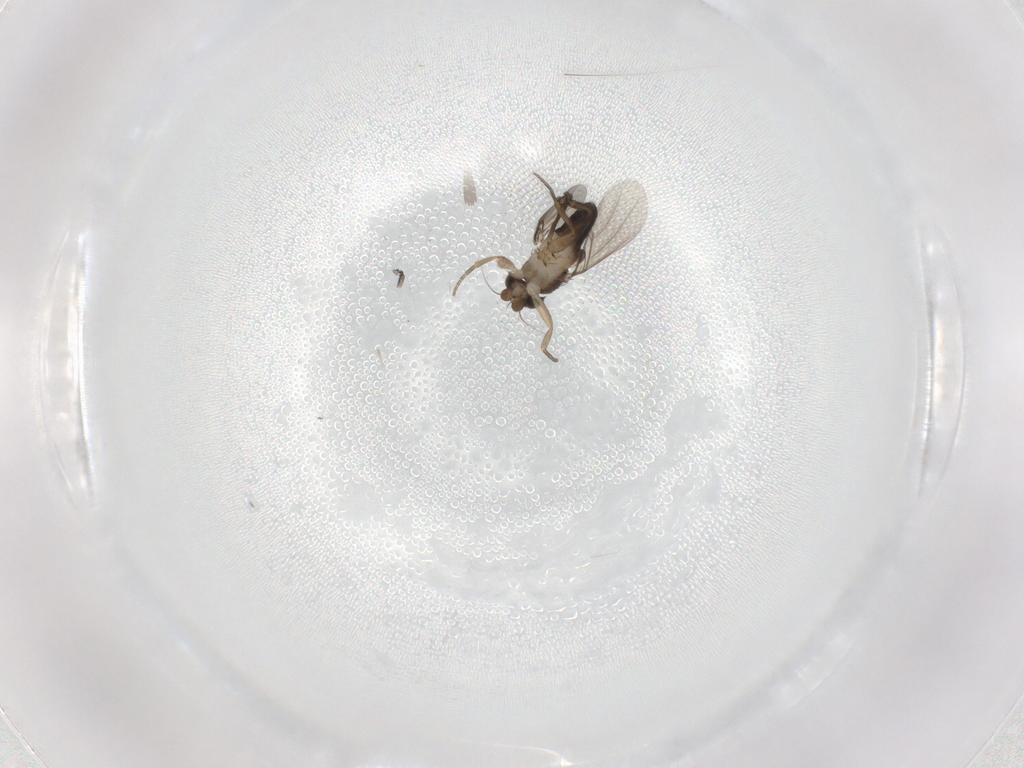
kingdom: Animalia
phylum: Arthropoda
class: Insecta
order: Diptera
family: Phoridae
